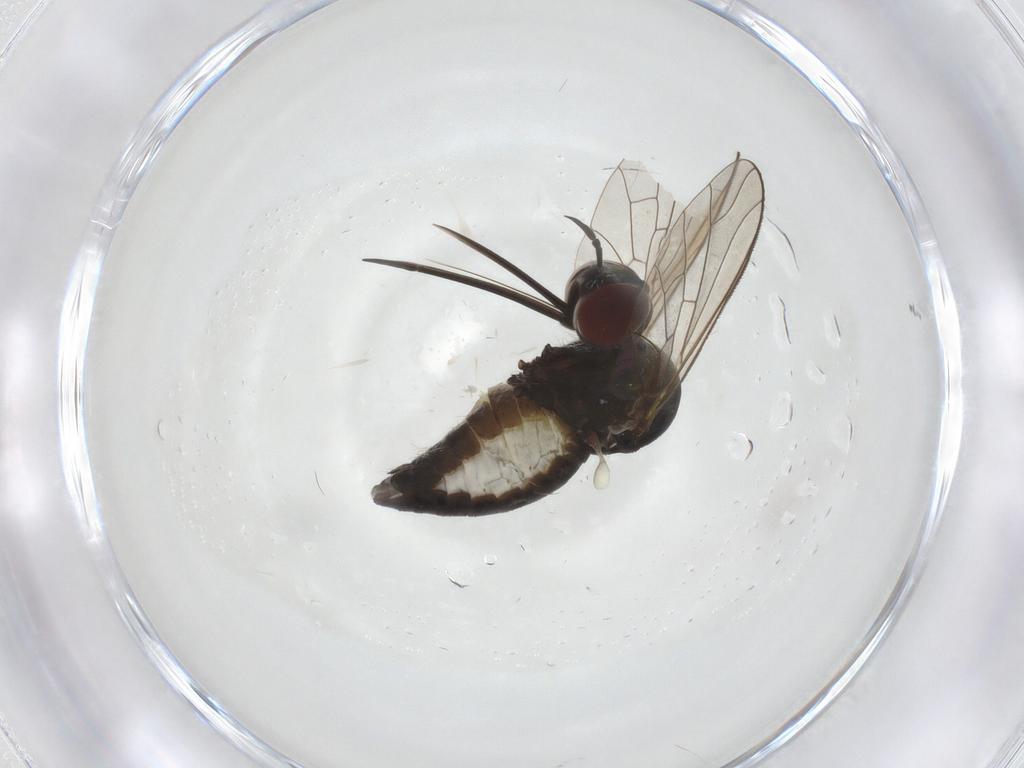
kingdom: Animalia
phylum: Arthropoda
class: Insecta
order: Diptera
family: Bombyliidae
